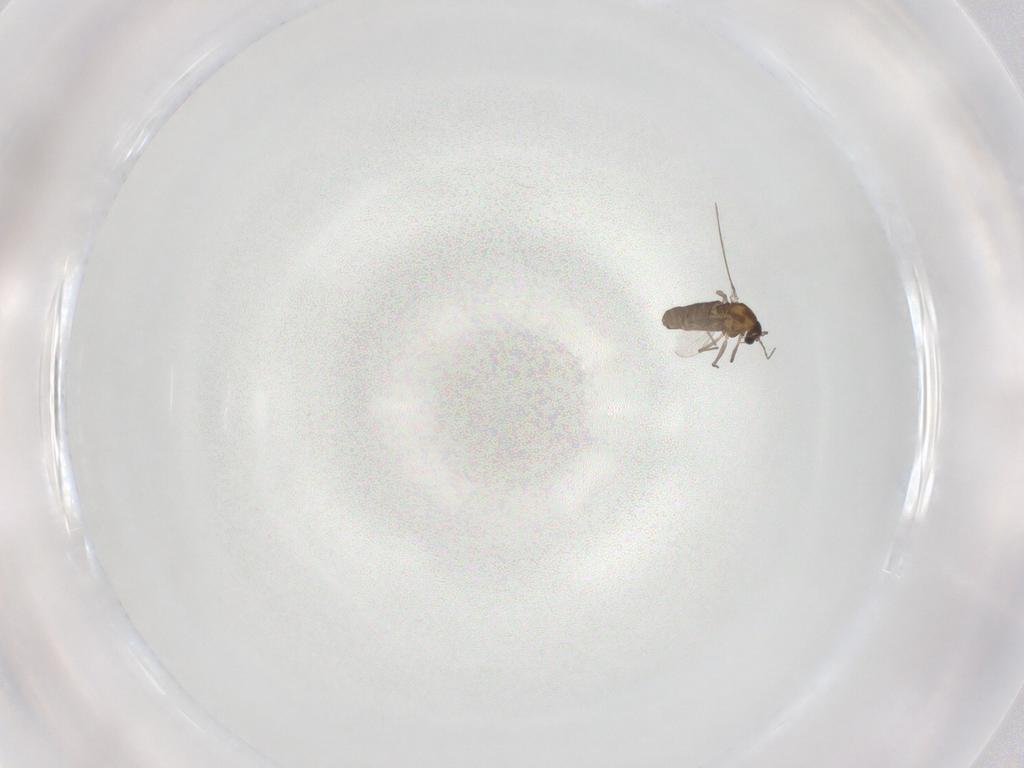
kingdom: Animalia
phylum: Arthropoda
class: Insecta
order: Diptera
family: Chironomidae
